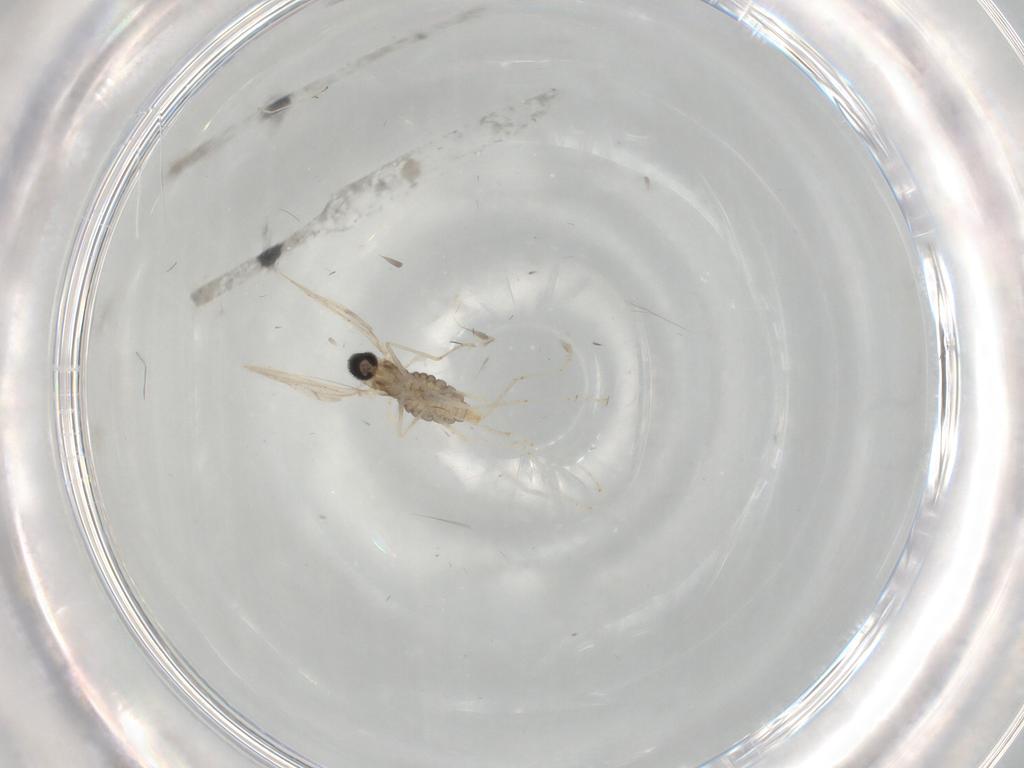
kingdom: Animalia
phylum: Arthropoda
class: Insecta
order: Diptera
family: Cecidomyiidae
